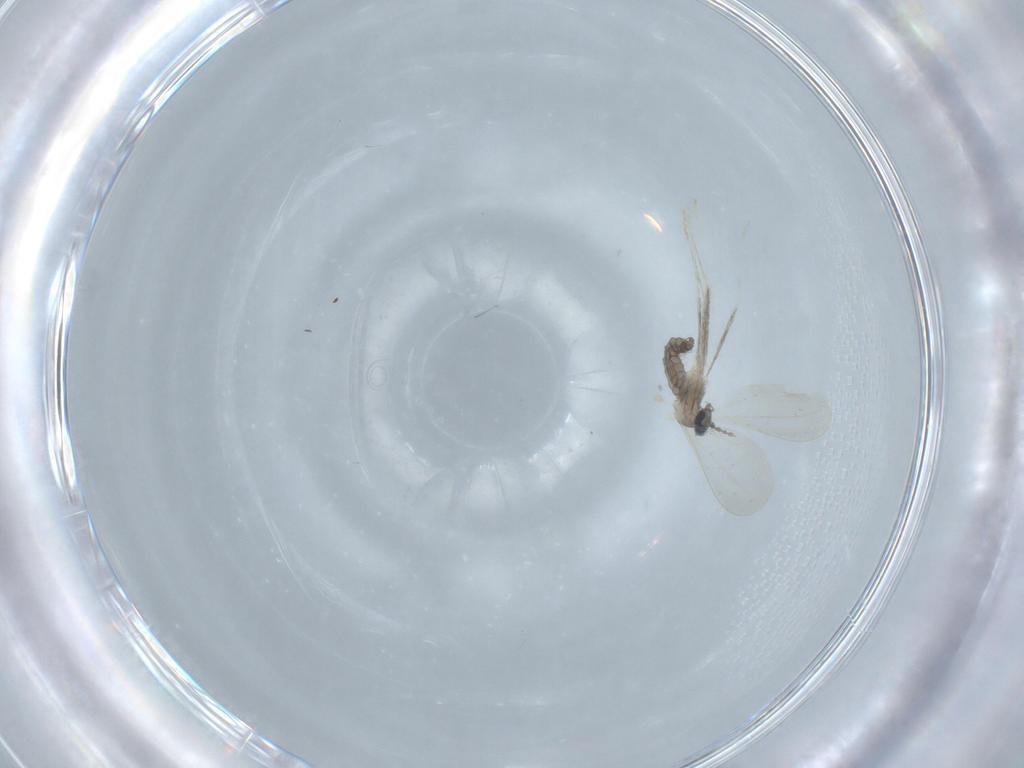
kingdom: Animalia
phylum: Arthropoda
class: Insecta
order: Diptera
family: Cecidomyiidae
